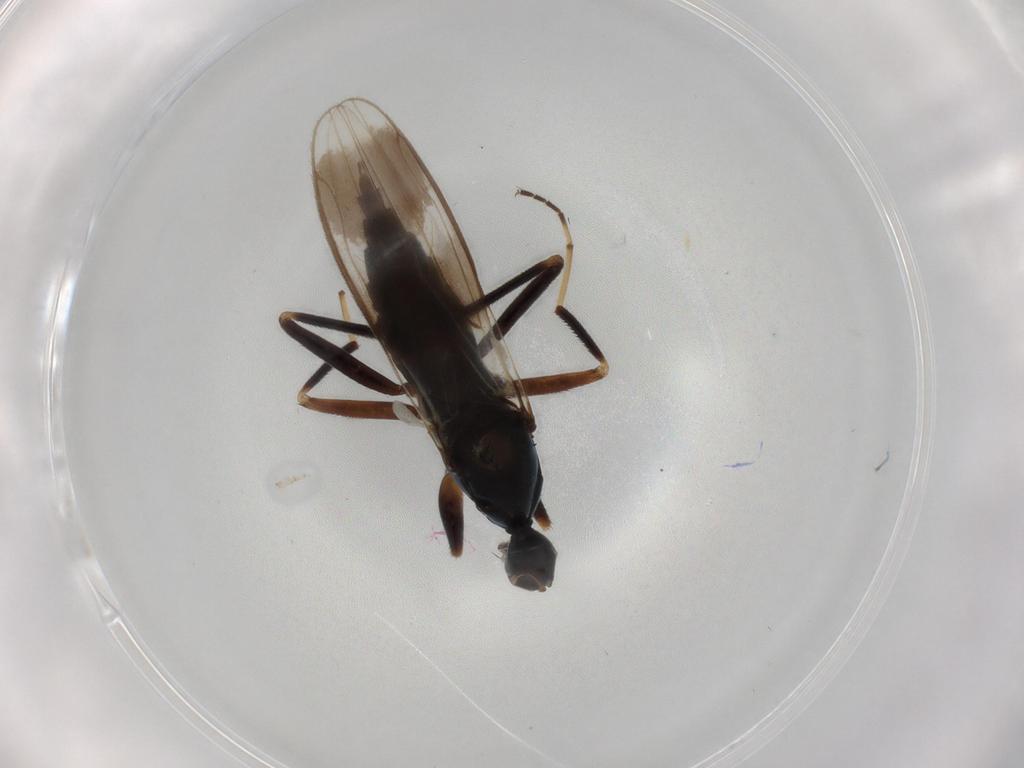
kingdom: Animalia
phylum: Arthropoda
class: Insecta
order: Diptera
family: Hybotidae
